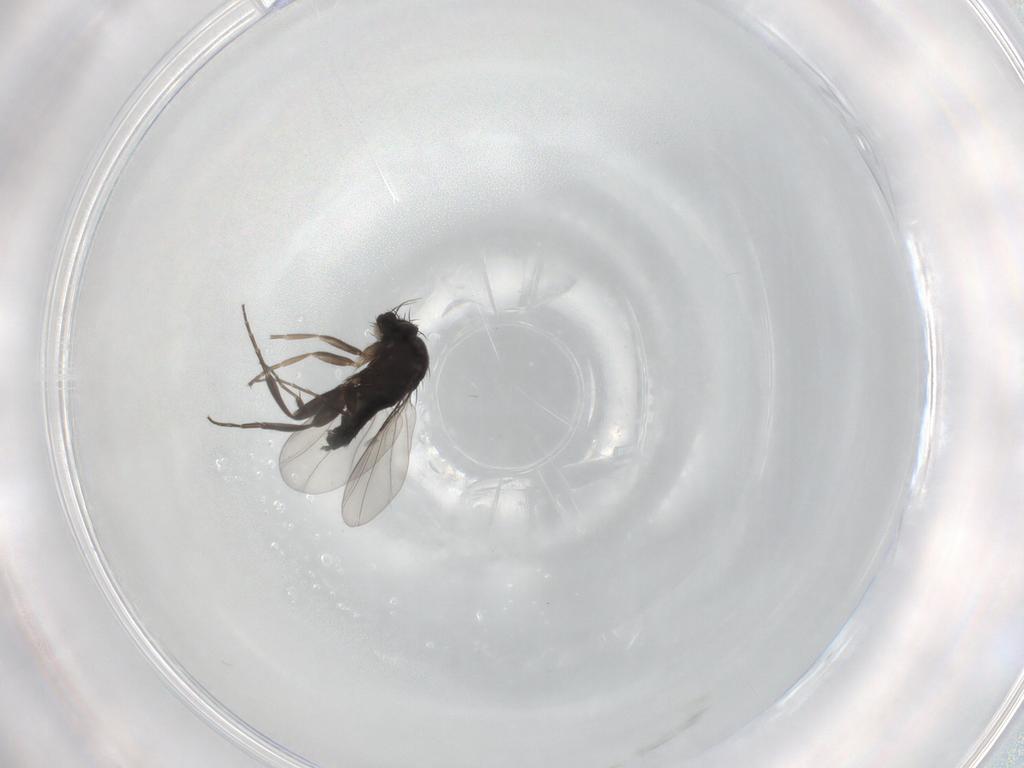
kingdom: Animalia
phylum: Arthropoda
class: Insecta
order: Diptera
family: Phoridae
